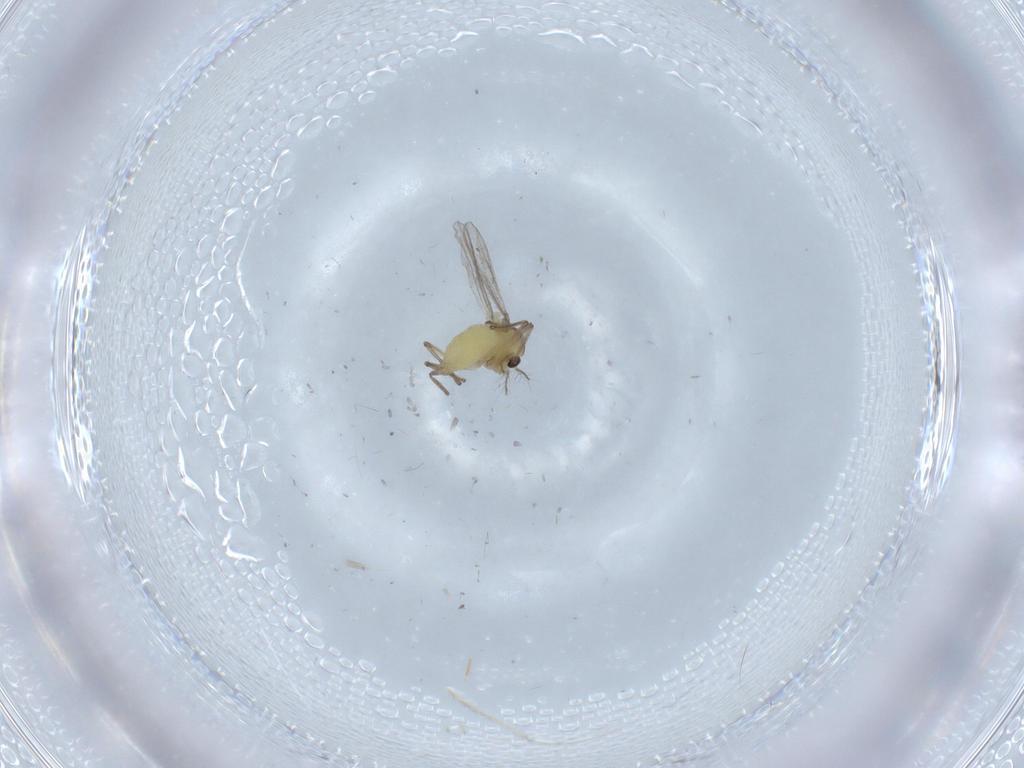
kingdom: Animalia
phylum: Arthropoda
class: Insecta
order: Diptera
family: Chironomidae
